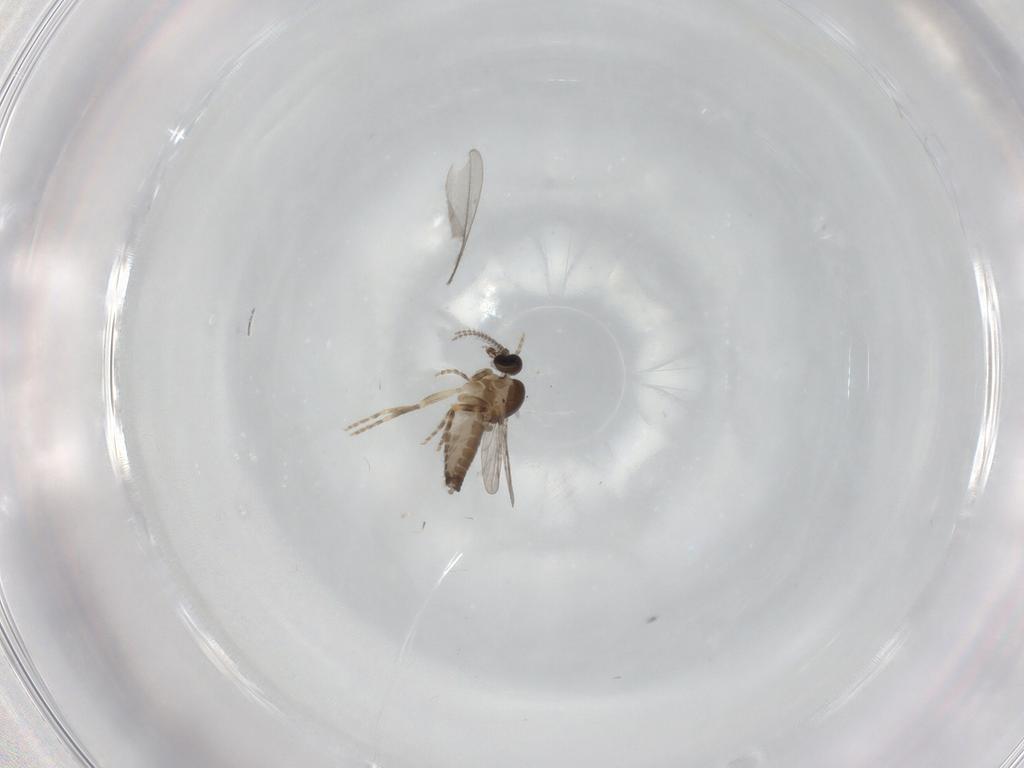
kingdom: Animalia
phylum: Arthropoda
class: Insecta
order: Diptera
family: Ceratopogonidae
